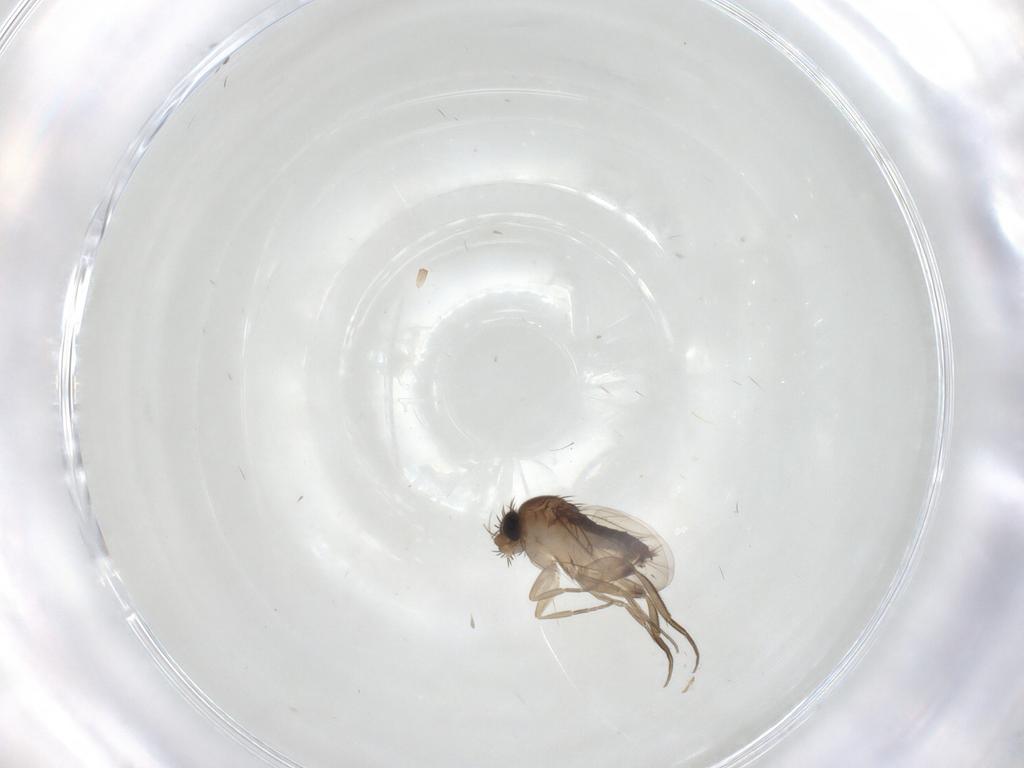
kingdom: Animalia
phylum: Arthropoda
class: Insecta
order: Diptera
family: Phoridae
